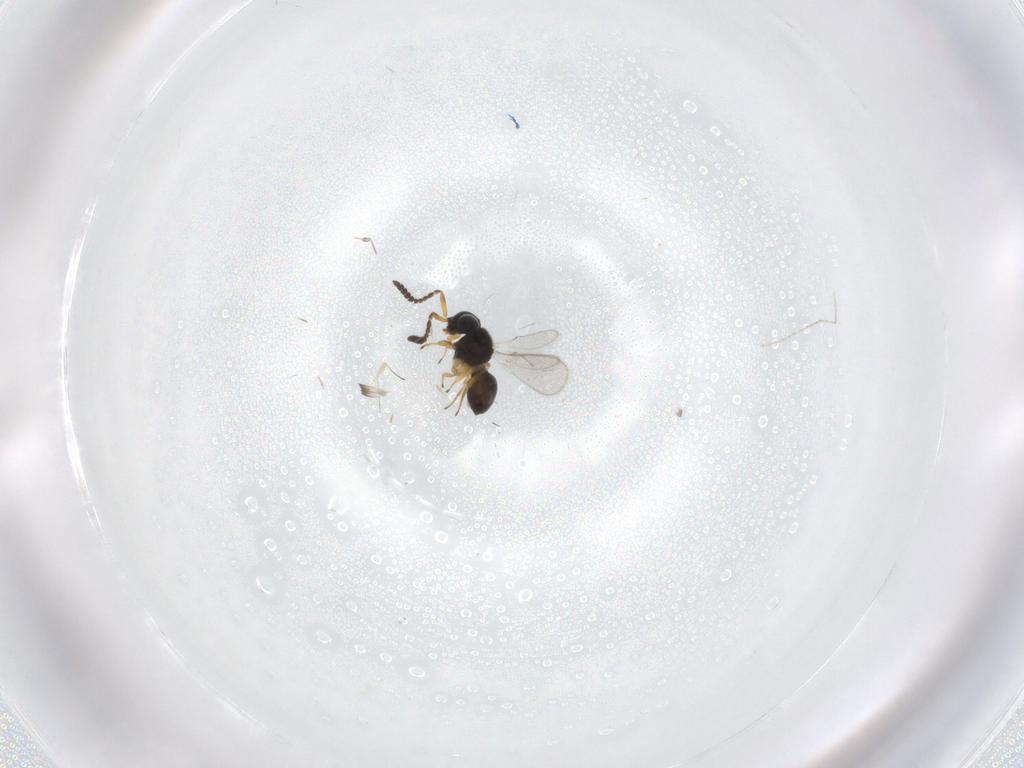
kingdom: Animalia
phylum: Arthropoda
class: Insecta
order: Hymenoptera
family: Scelionidae
